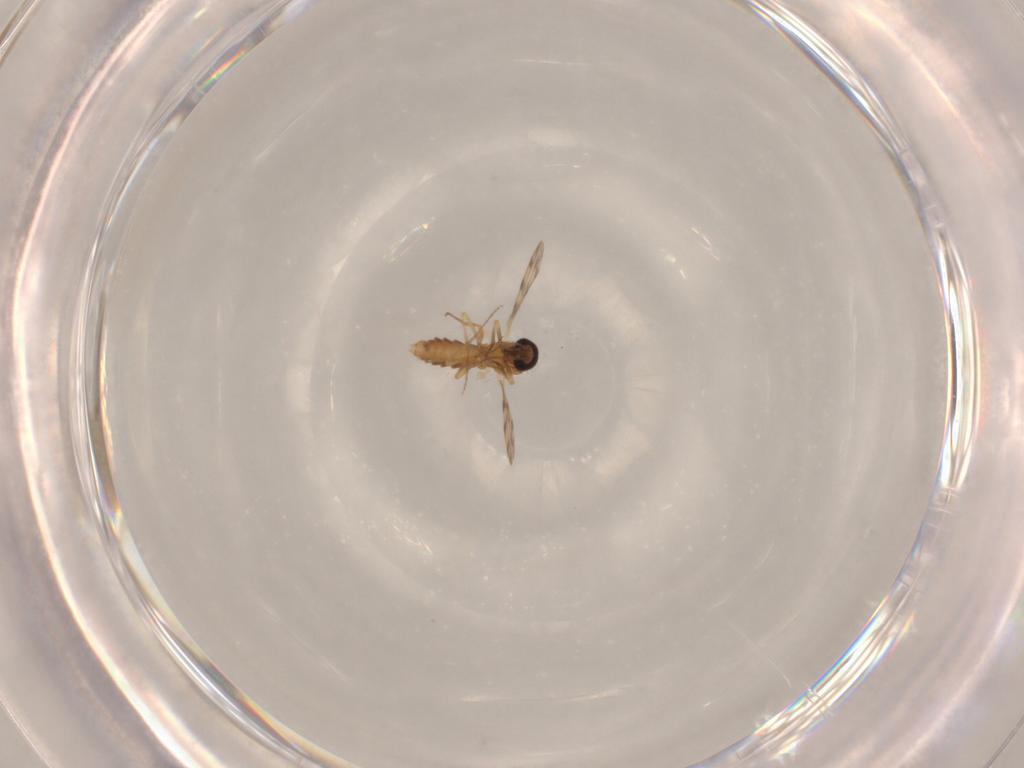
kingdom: Animalia
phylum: Arthropoda
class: Insecta
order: Diptera
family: Ceratopogonidae
